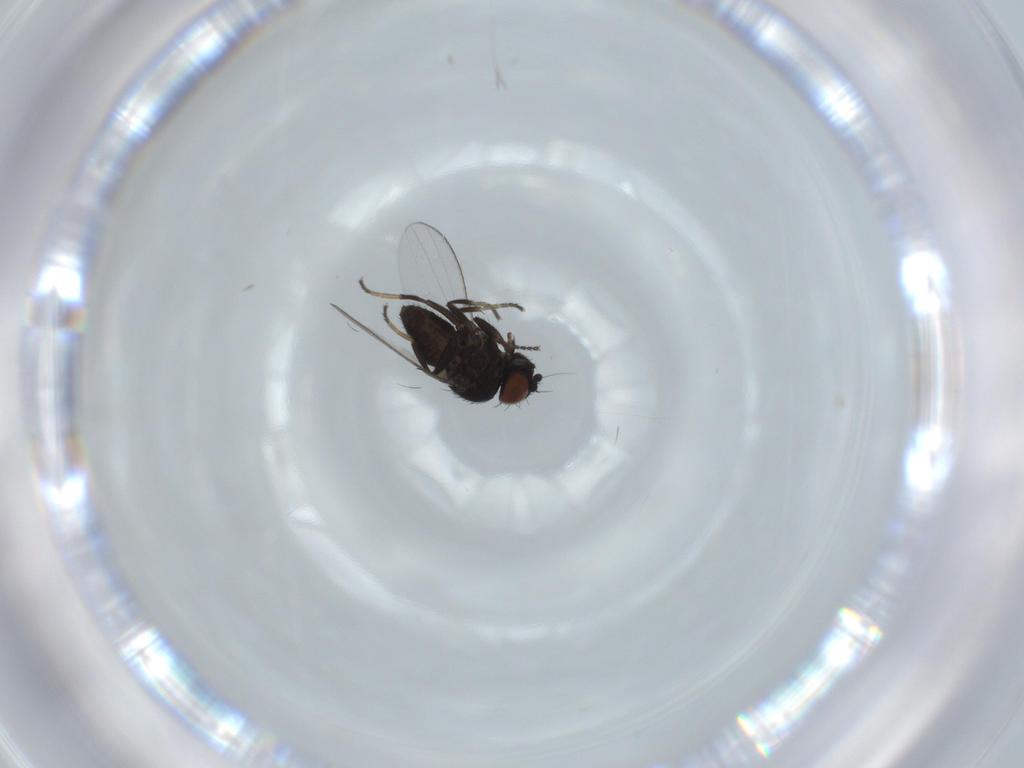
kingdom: Animalia
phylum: Arthropoda
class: Insecta
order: Diptera
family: Milichiidae
